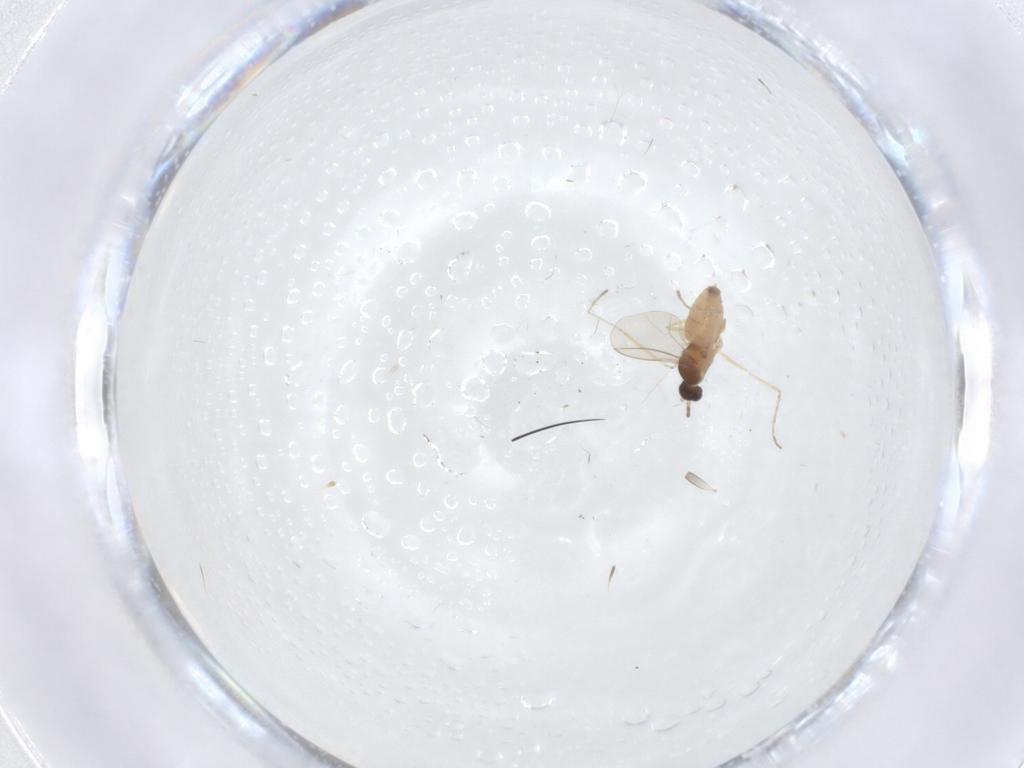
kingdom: Animalia
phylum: Arthropoda
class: Insecta
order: Diptera
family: Cecidomyiidae
